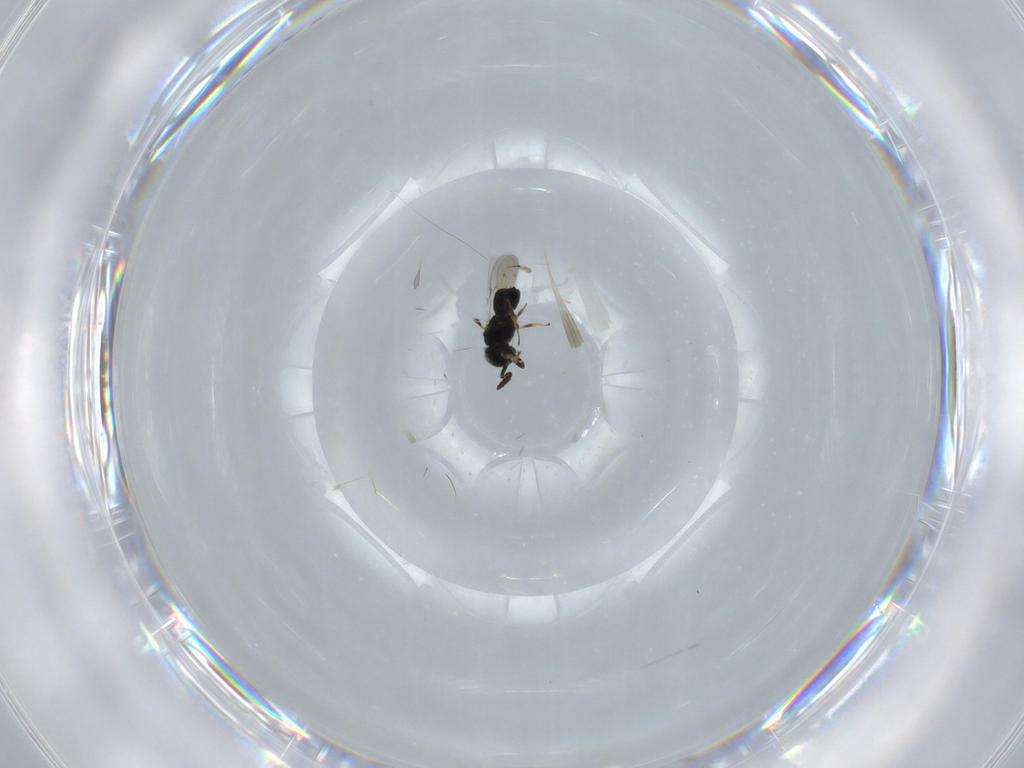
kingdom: Animalia
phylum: Arthropoda
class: Insecta
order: Hymenoptera
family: Scelionidae
